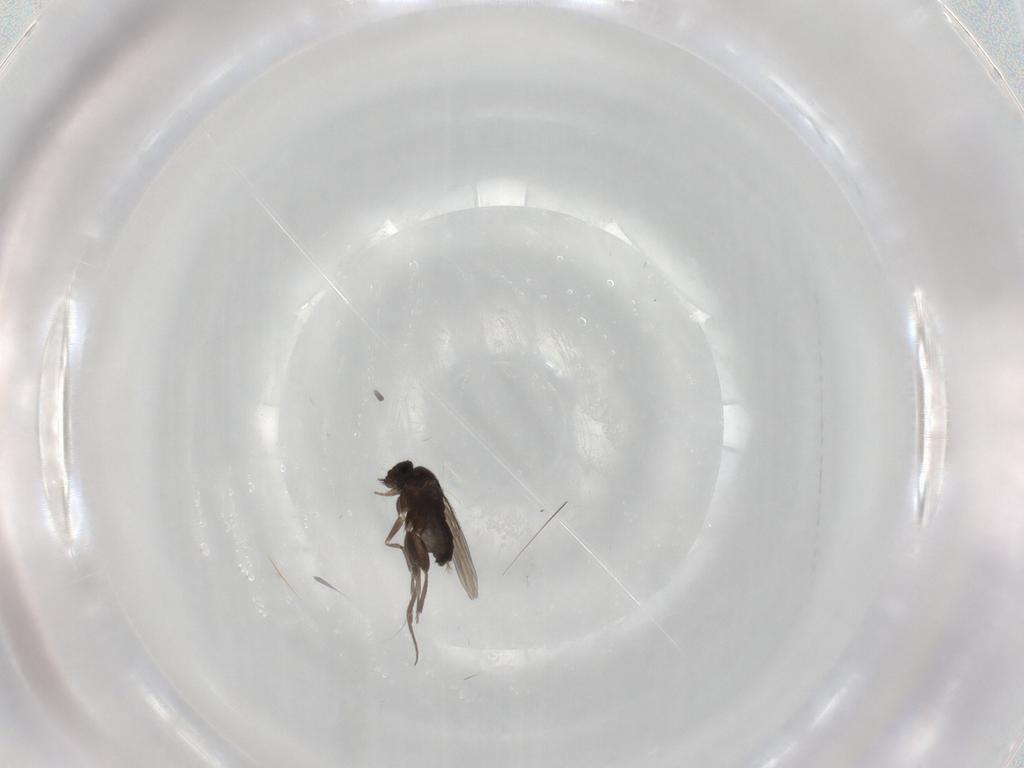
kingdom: Animalia
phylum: Arthropoda
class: Insecta
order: Diptera
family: Phoridae
